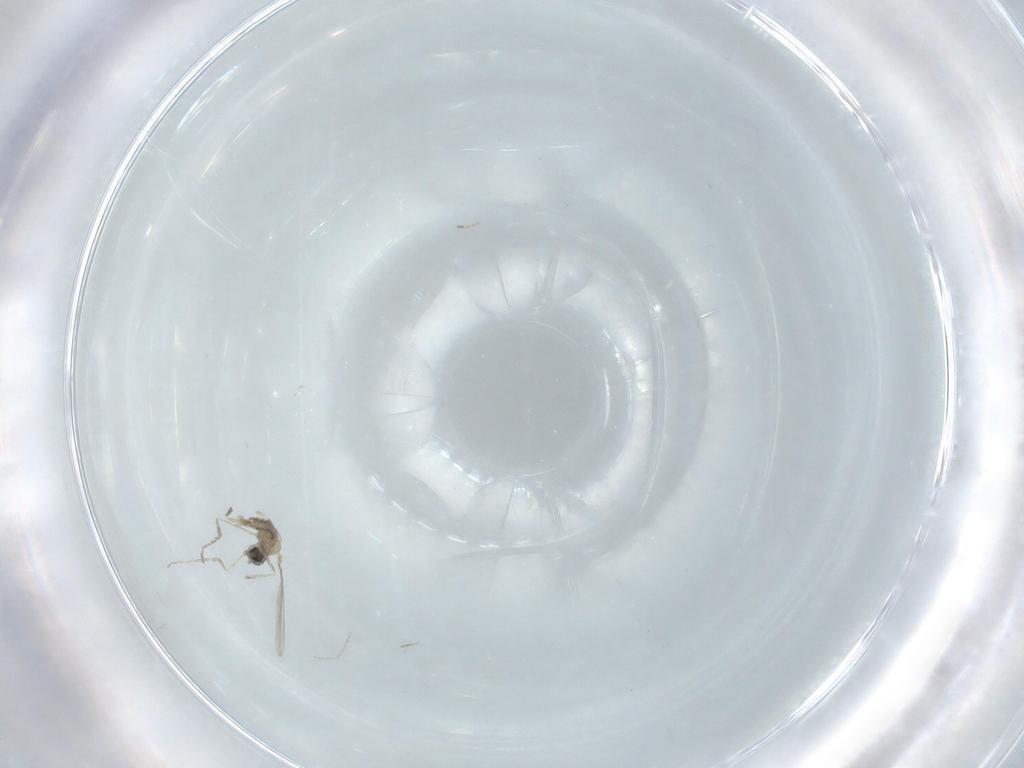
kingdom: Animalia
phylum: Arthropoda
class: Insecta
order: Diptera
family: Cecidomyiidae
